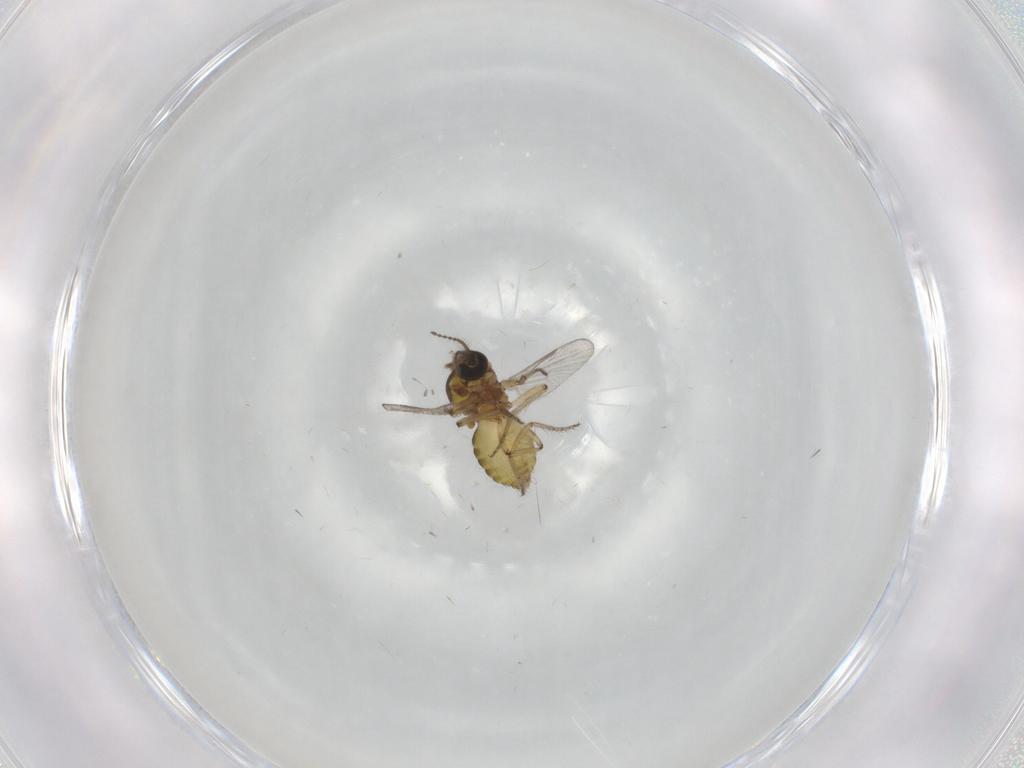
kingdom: Animalia
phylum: Arthropoda
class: Insecta
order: Diptera
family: Ceratopogonidae
